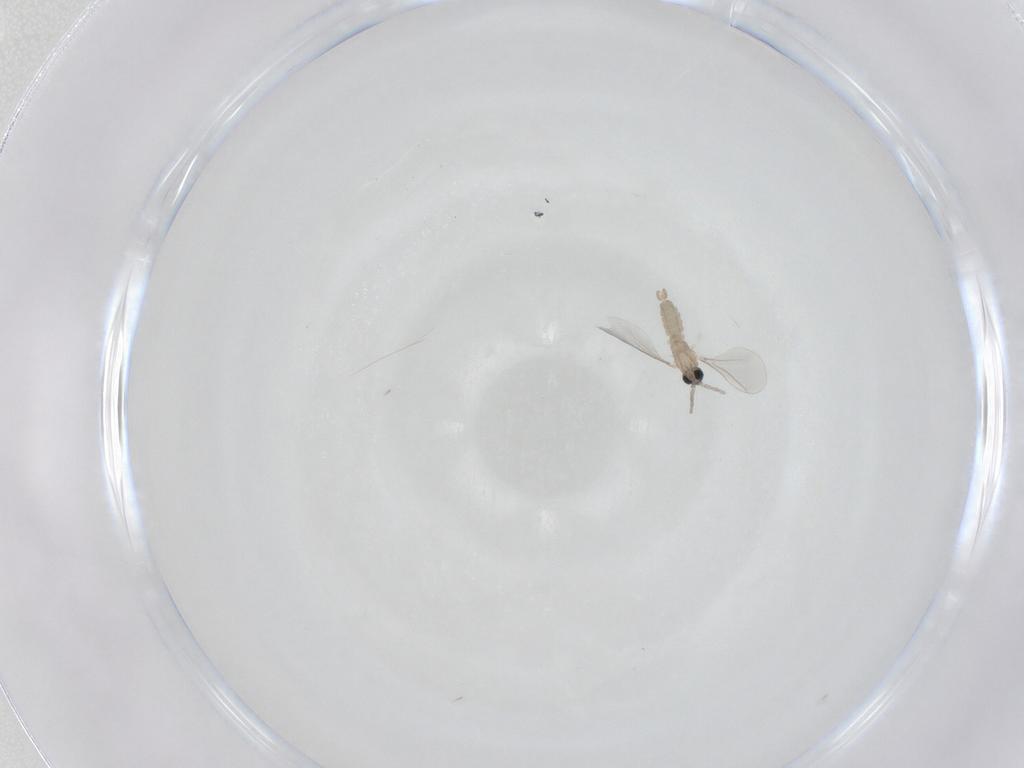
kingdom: Animalia
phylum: Arthropoda
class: Insecta
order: Diptera
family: Cecidomyiidae
